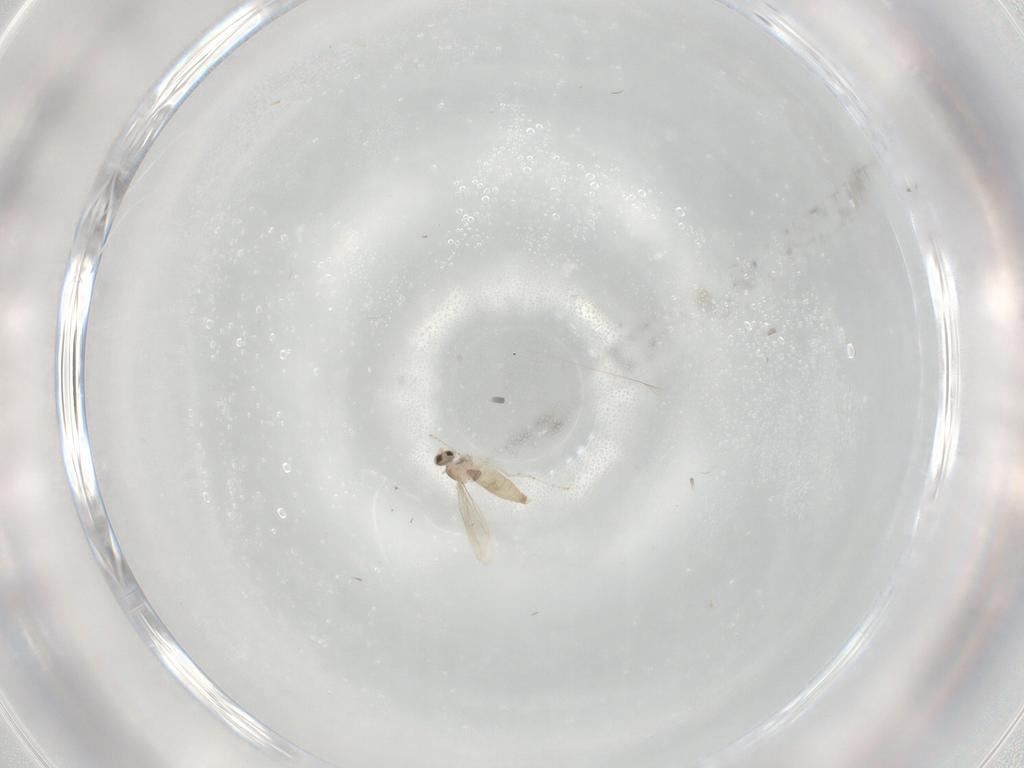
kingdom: Animalia
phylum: Arthropoda
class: Insecta
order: Diptera
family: Cecidomyiidae
